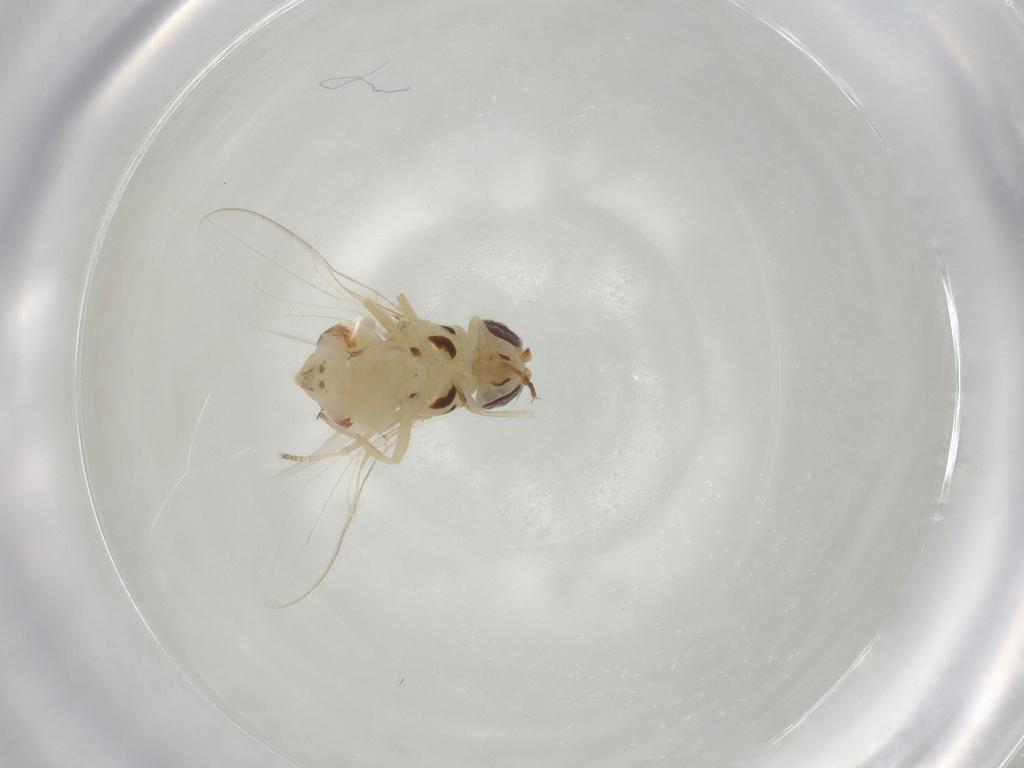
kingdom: Animalia
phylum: Arthropoda
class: Insecta
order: Diptera
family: Asteiidae
